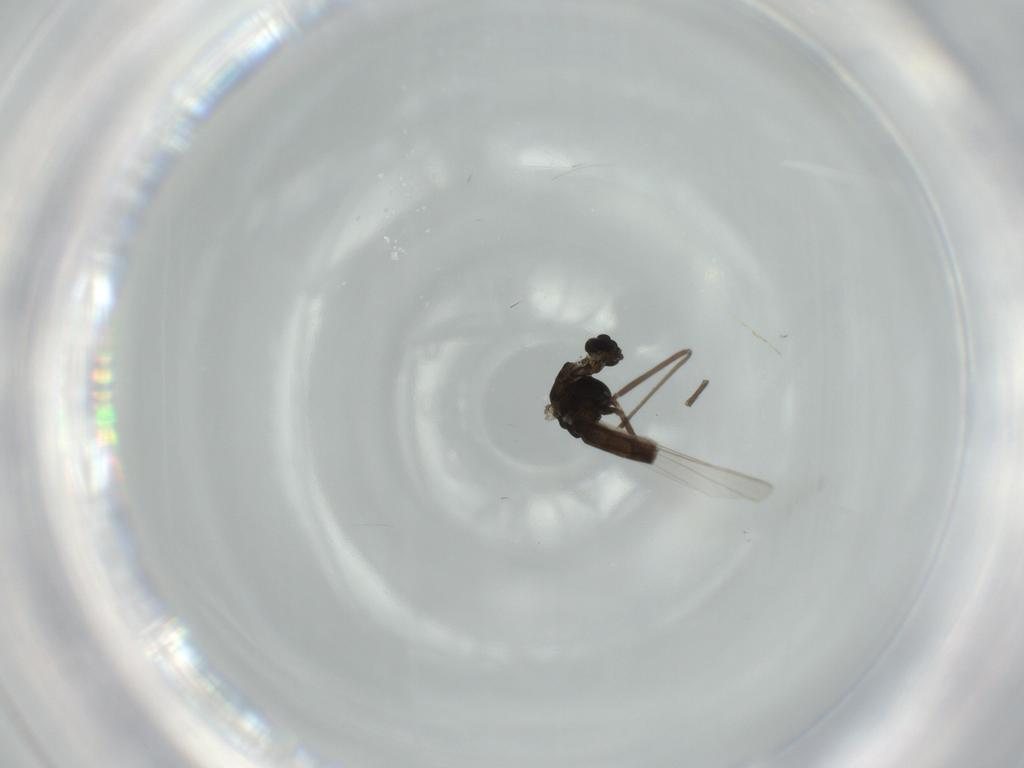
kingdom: Animalia
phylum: Arthropoda
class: Insecta
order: Diptera
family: Chironomidae
